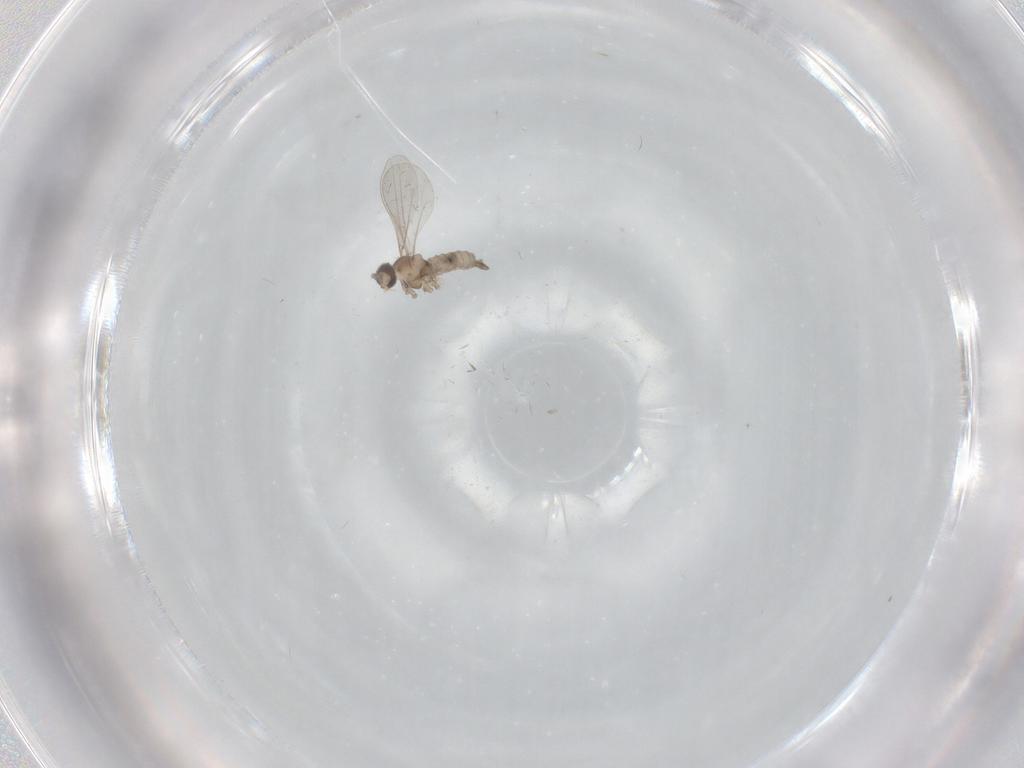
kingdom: Animalia
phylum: Arthropoda
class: Insecta
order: Diptera
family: Cecidomyiidae
